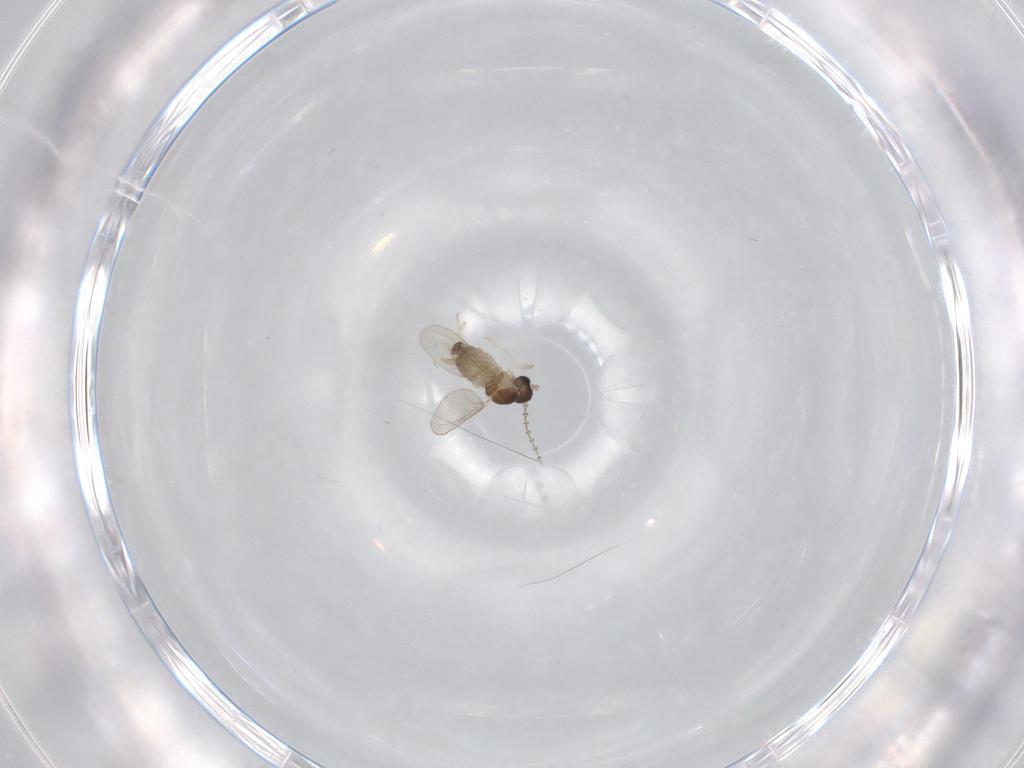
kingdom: Animalia
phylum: Arthropoda
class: Insecta
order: Diptera
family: Cecidomyiidae
